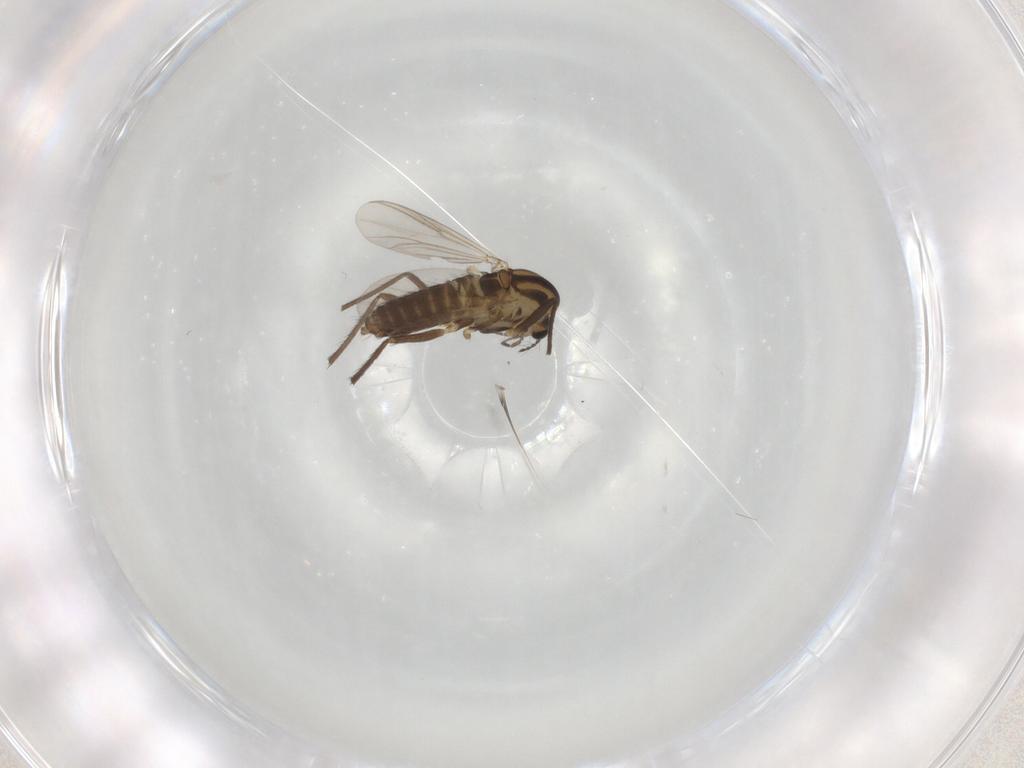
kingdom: Animalia
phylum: Arthropoda
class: Insecta
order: Diptera
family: Chironomidae
